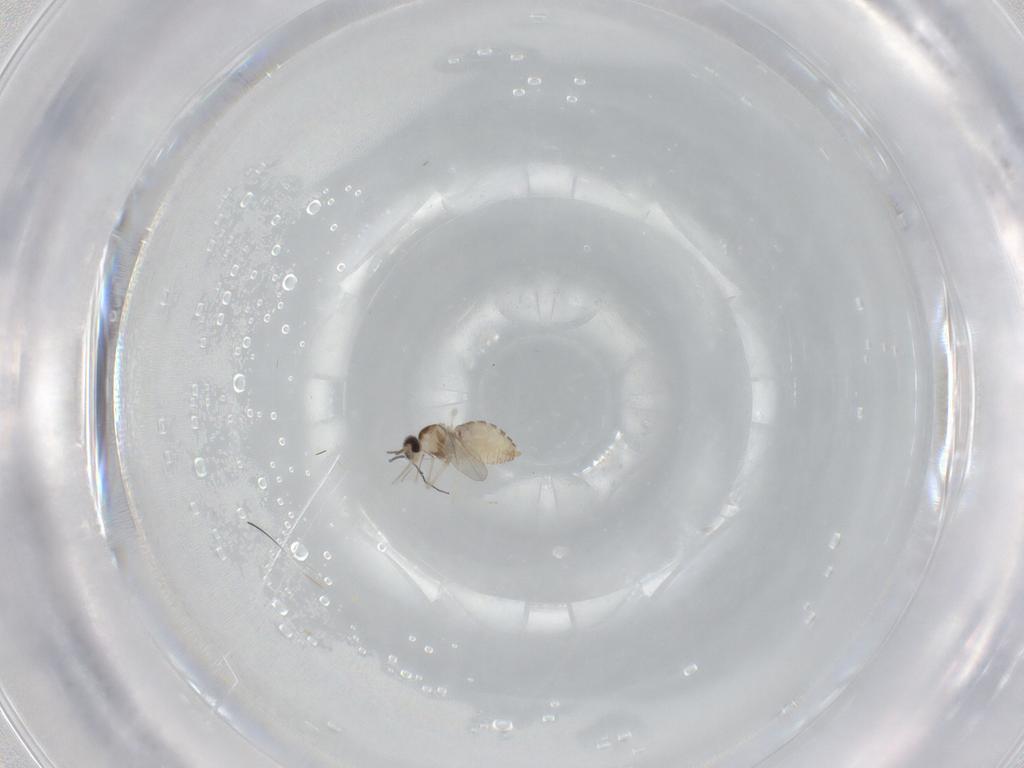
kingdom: Animalia
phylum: Arthropoda
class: Insecta
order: Diptera
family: Cecidomyiidae
